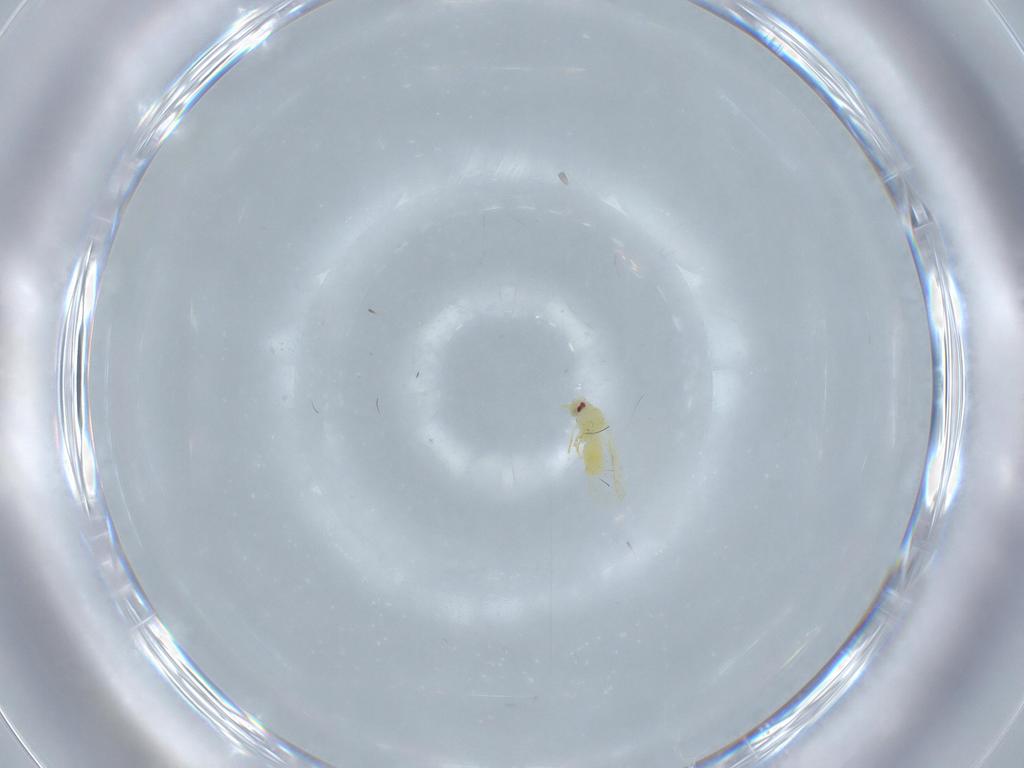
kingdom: Animalia
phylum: Arthropoda
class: Insecta
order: Hemiptera
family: Aleyrodidae
